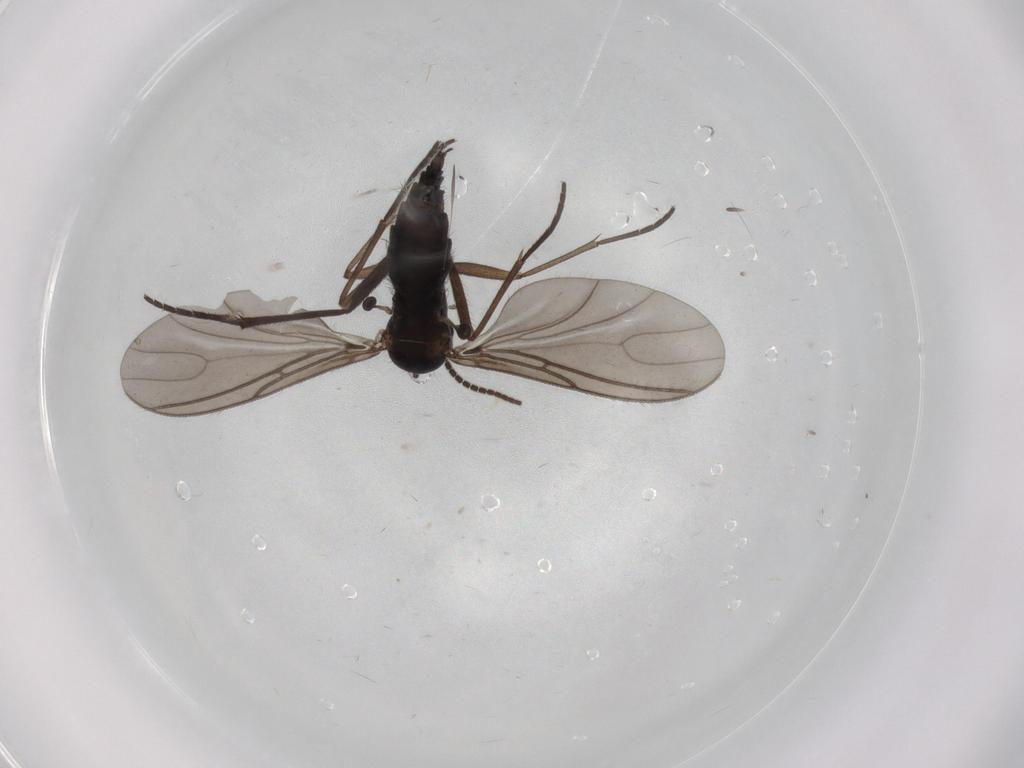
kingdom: Animalia
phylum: Arthropoda
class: Insecta
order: Diptera
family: Sciaridae
